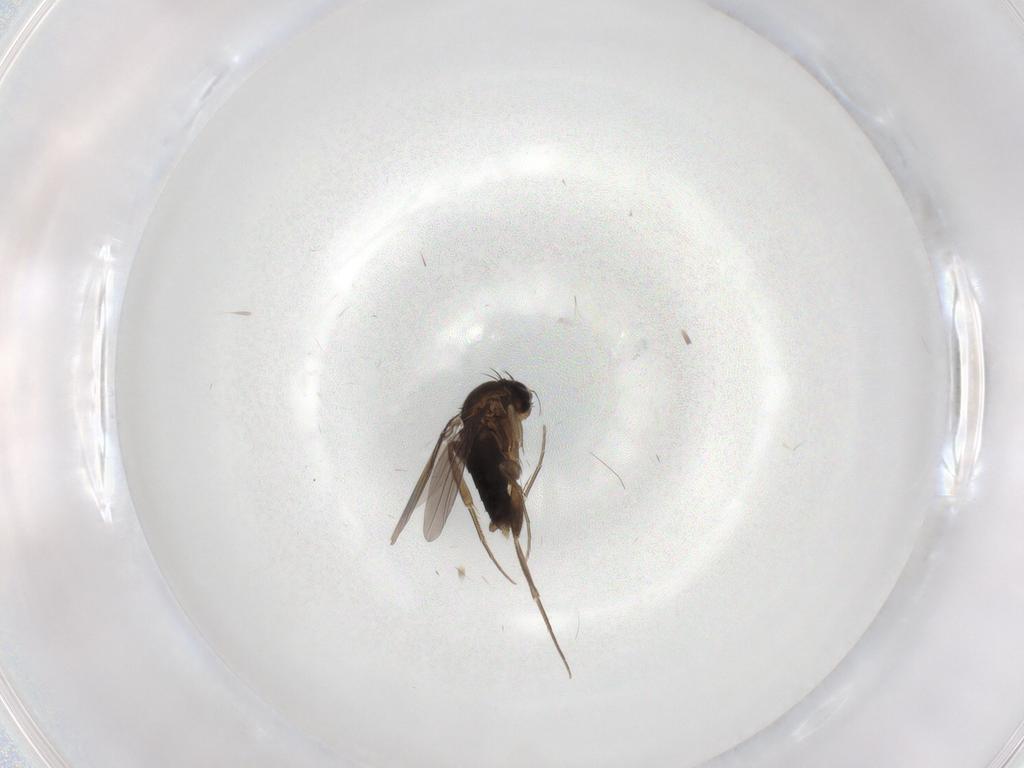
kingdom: Animalia
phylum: Arthropoda
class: Insecta
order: Diptera
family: Phoridae
